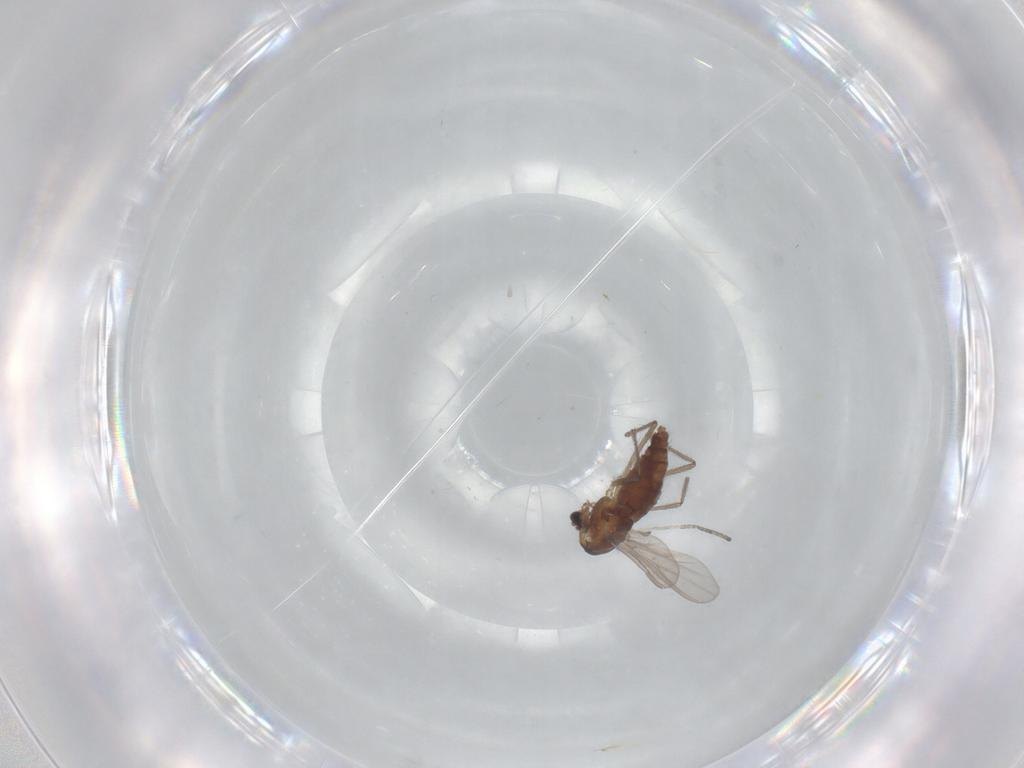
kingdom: Animalia
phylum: Arthropoda
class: Insecta
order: Diptera
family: Chironomidae
